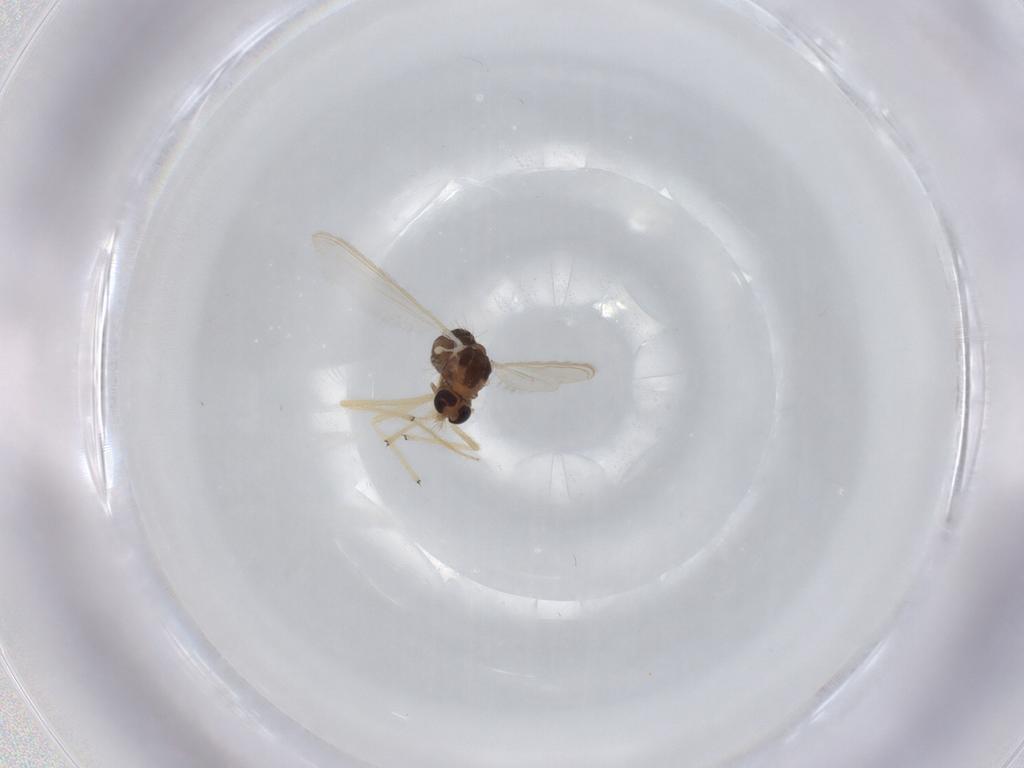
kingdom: Animalia
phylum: Arthropoda
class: Insecta
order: Diptera
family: Chironomidae
